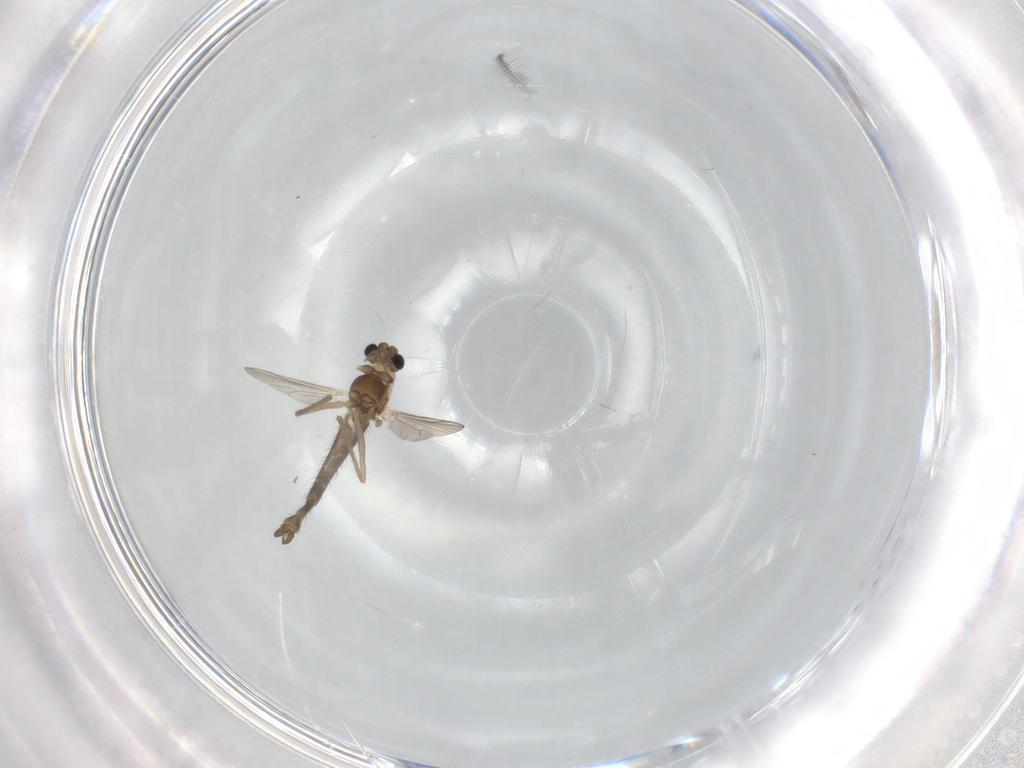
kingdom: Animalia
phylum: Arthropoda
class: Insecta
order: Diptera
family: Chironomidae
